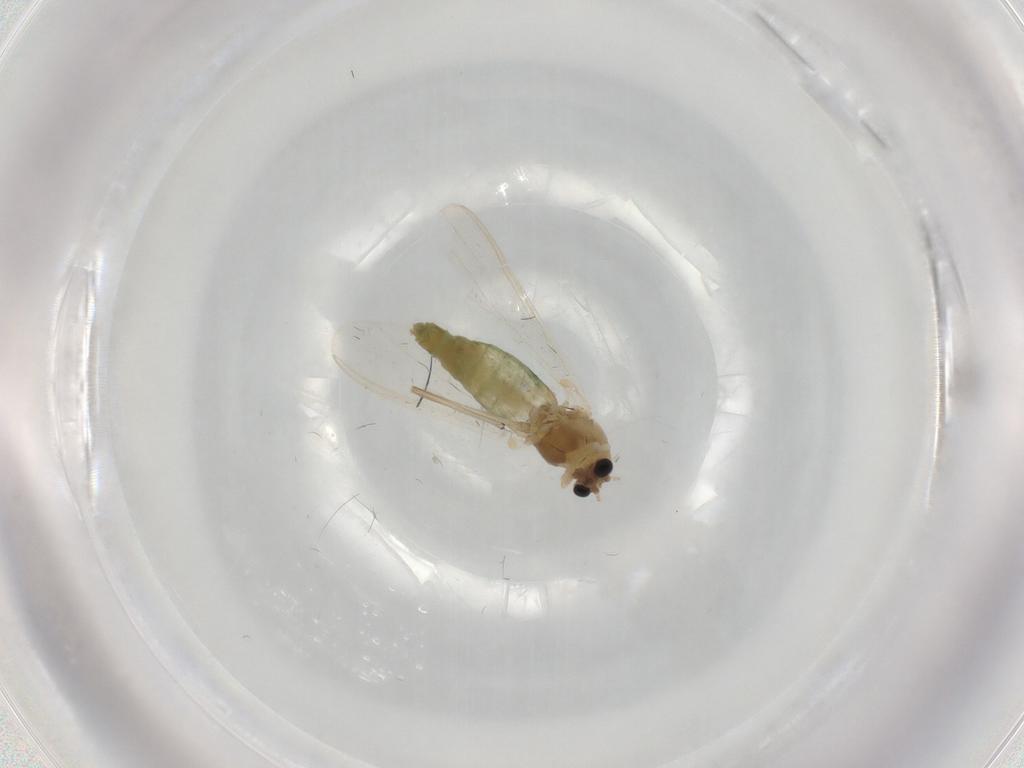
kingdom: Animalia
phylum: Arthropoda
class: Insecta
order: Diptera
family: Chironomidae
